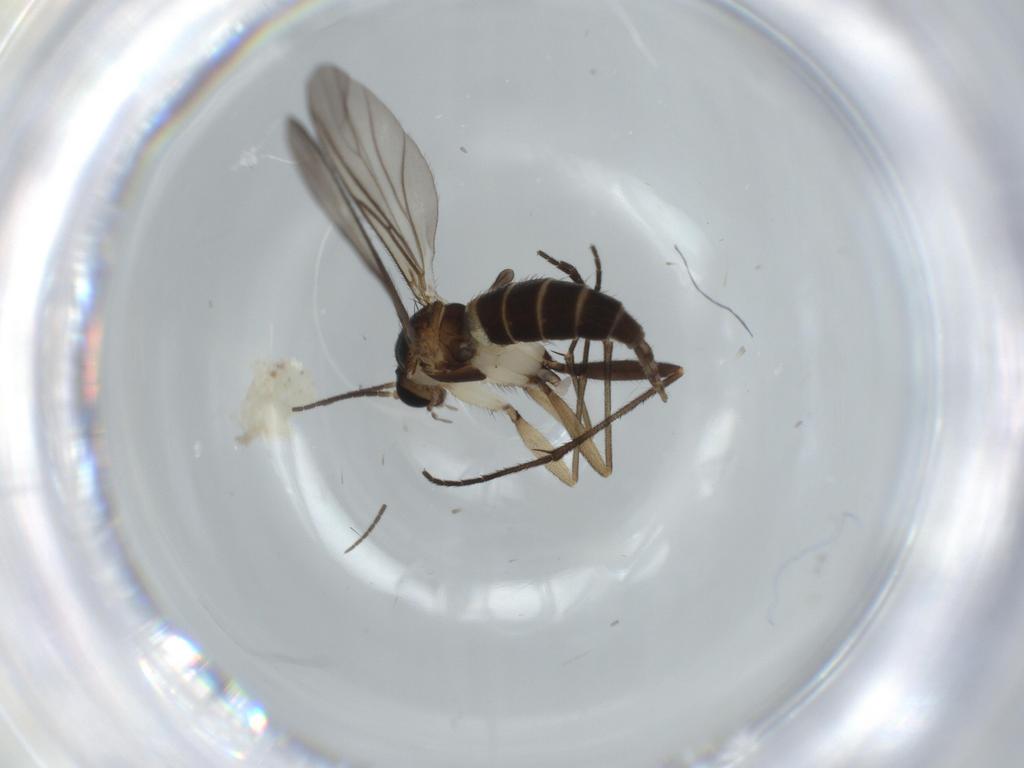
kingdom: Animalia
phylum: Arthropoda
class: Insecta
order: Diptera
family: Sciaridae
